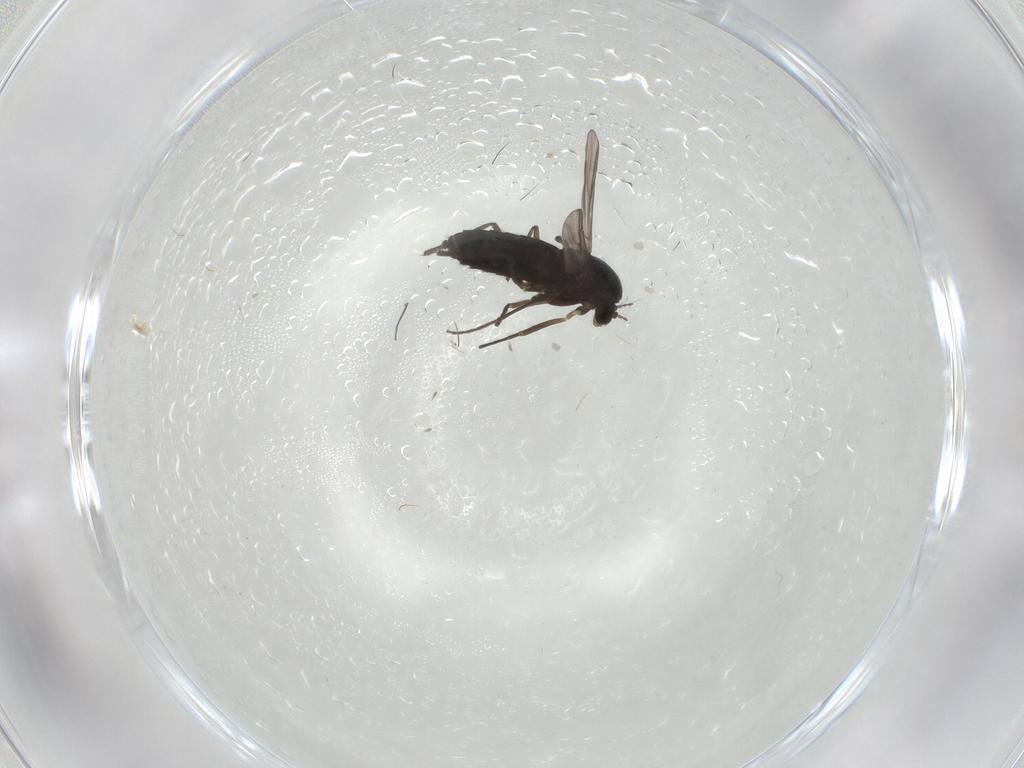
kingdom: Animalia
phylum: Arthropoda
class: Insecta
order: Diptera
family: Chironomidae
